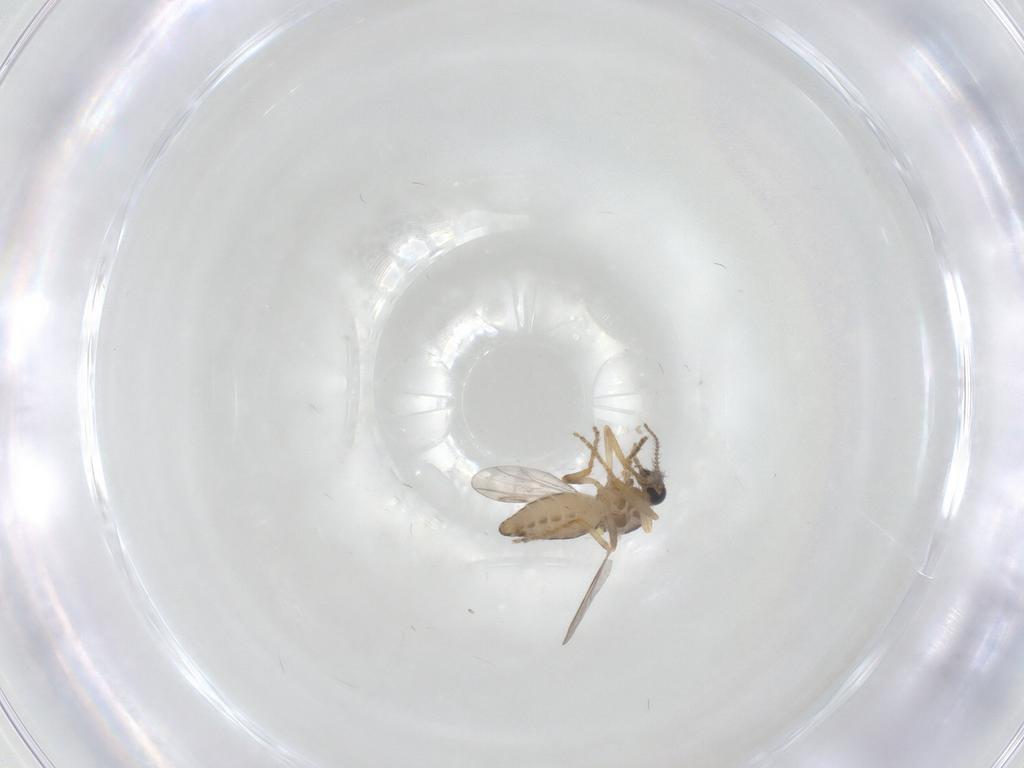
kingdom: Animalia
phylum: Arthropoda
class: Insecta
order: Diptera
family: Ceratopogonidae
